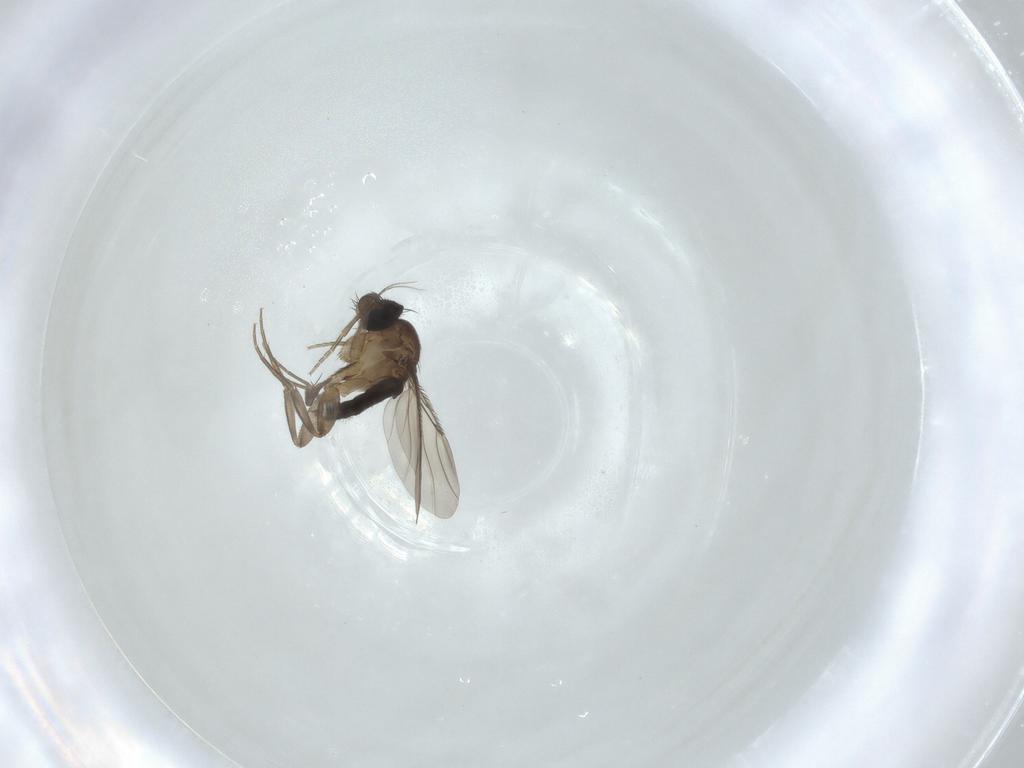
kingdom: Animalia
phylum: Arthropoda
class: Insecta
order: Diptera
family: Phoridae
